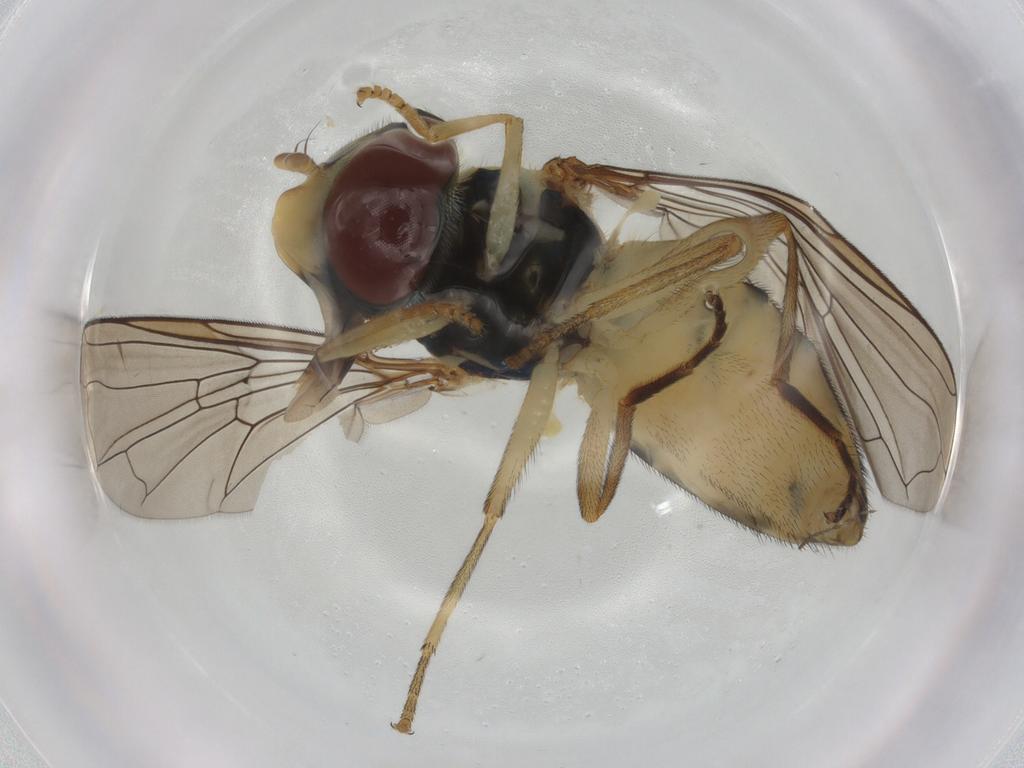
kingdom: Animalia
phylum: Arthropoda
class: Insecta
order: Diptera
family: Syrphidae
